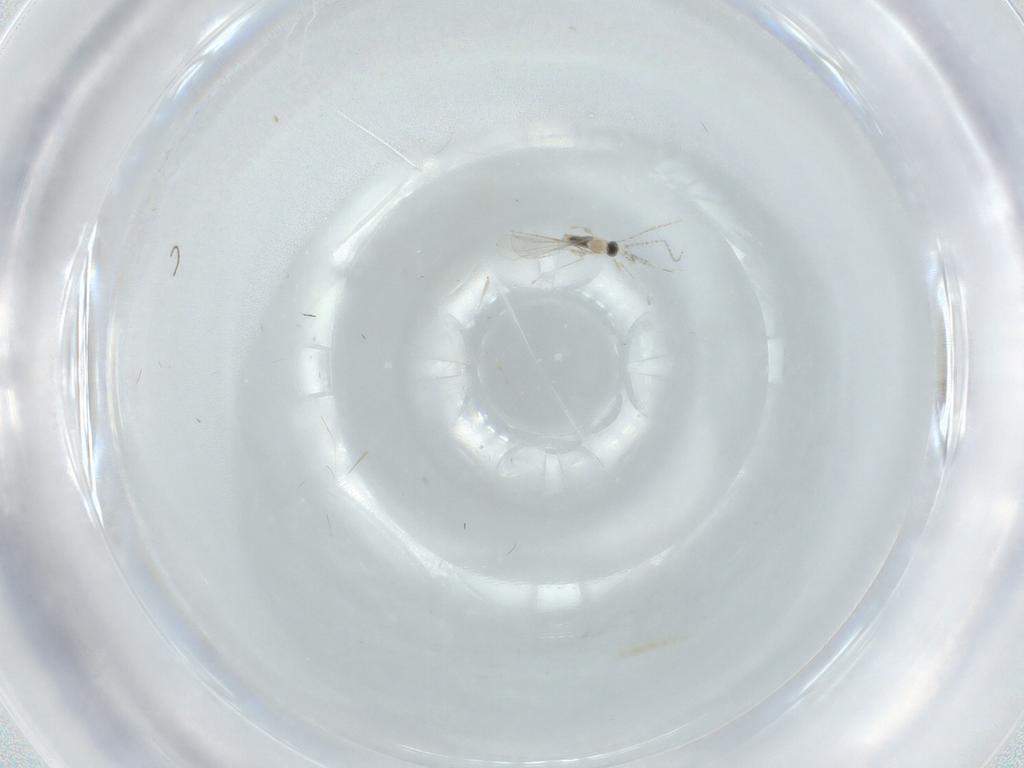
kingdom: Animalia
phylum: Arthropoda
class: Insecta
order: Diptera
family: Cecidomyiidae
